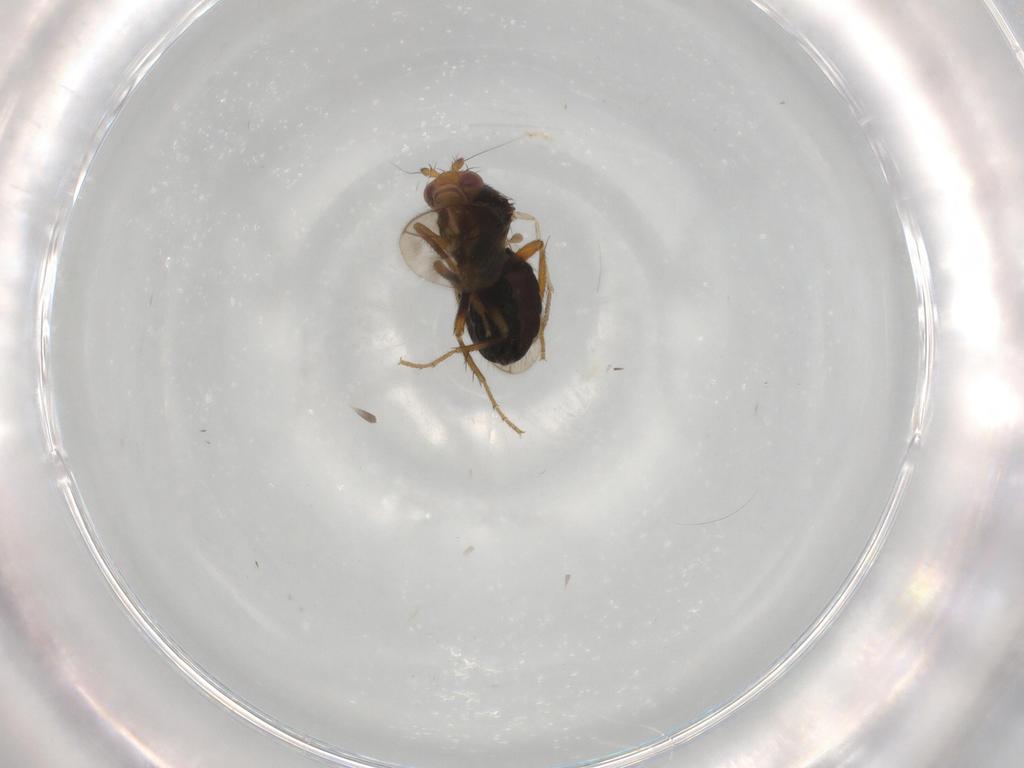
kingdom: Animalia
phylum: Arthropoda
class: Insecta
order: Diptera
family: Sphaeroceridae
